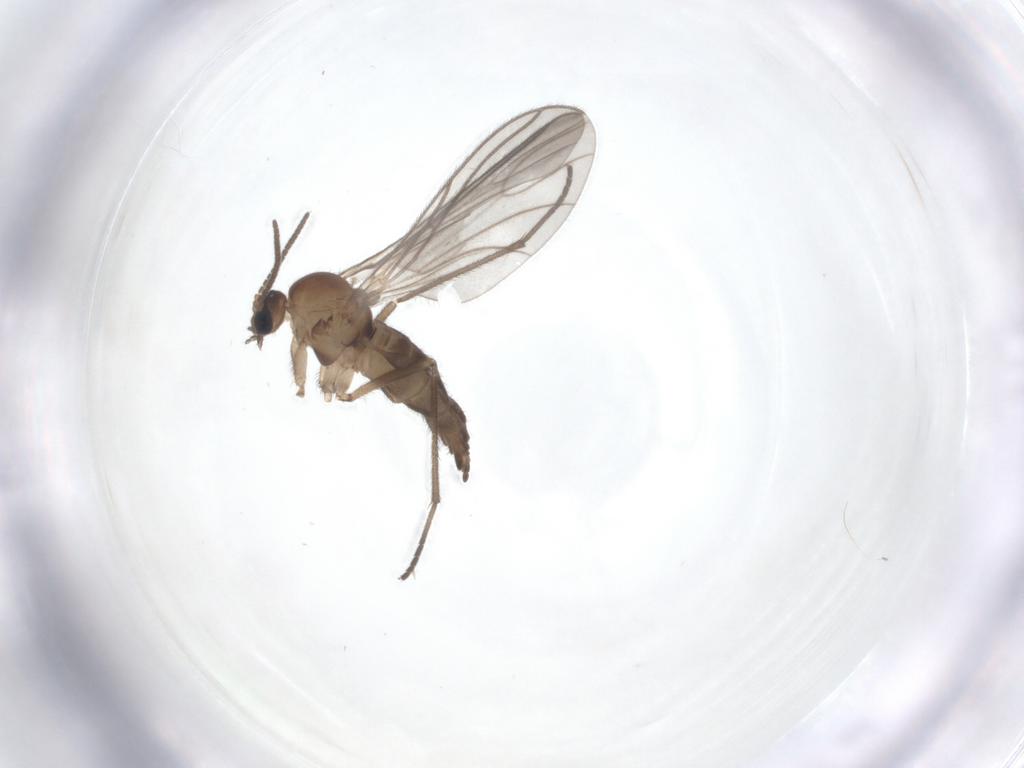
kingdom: Animalia
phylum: Arthropoda
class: Insecta
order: Diptera
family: Sciaridae
